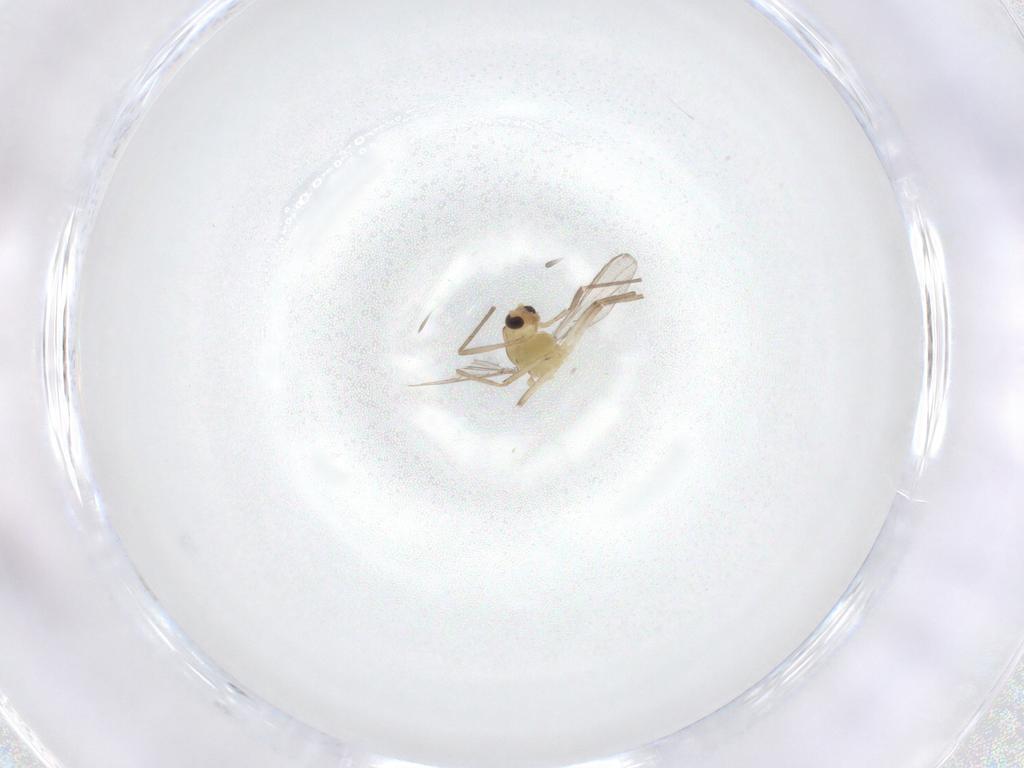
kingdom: Animalia
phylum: Arthropoda
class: Insecta
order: Diptera
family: Chironomidae
